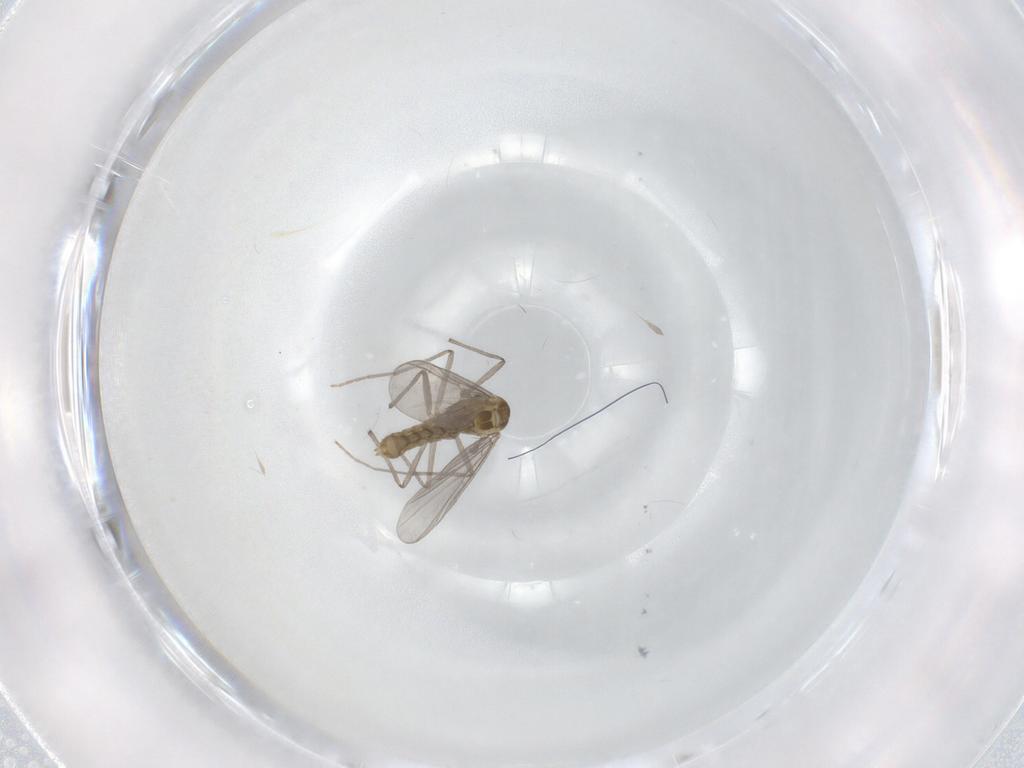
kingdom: Animalia
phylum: Arthropoda
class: Insecta
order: Diptera
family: Chironomidae
